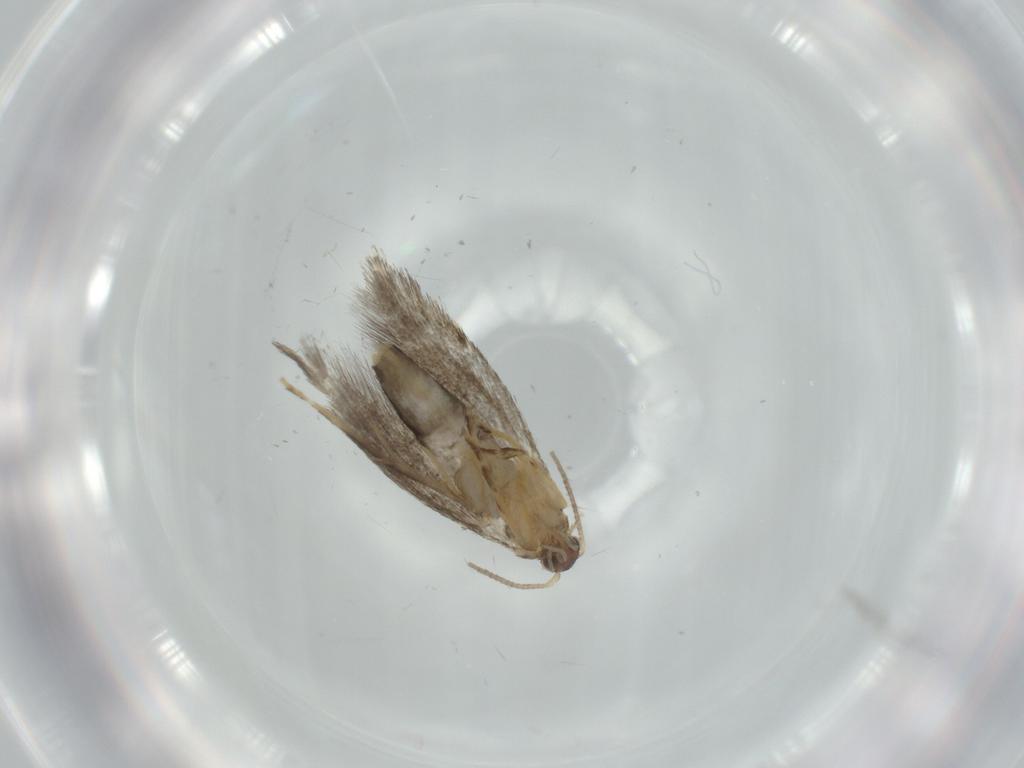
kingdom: Animalia
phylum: Arthropoda
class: Insecta
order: Lepidoptera
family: Tineidae
